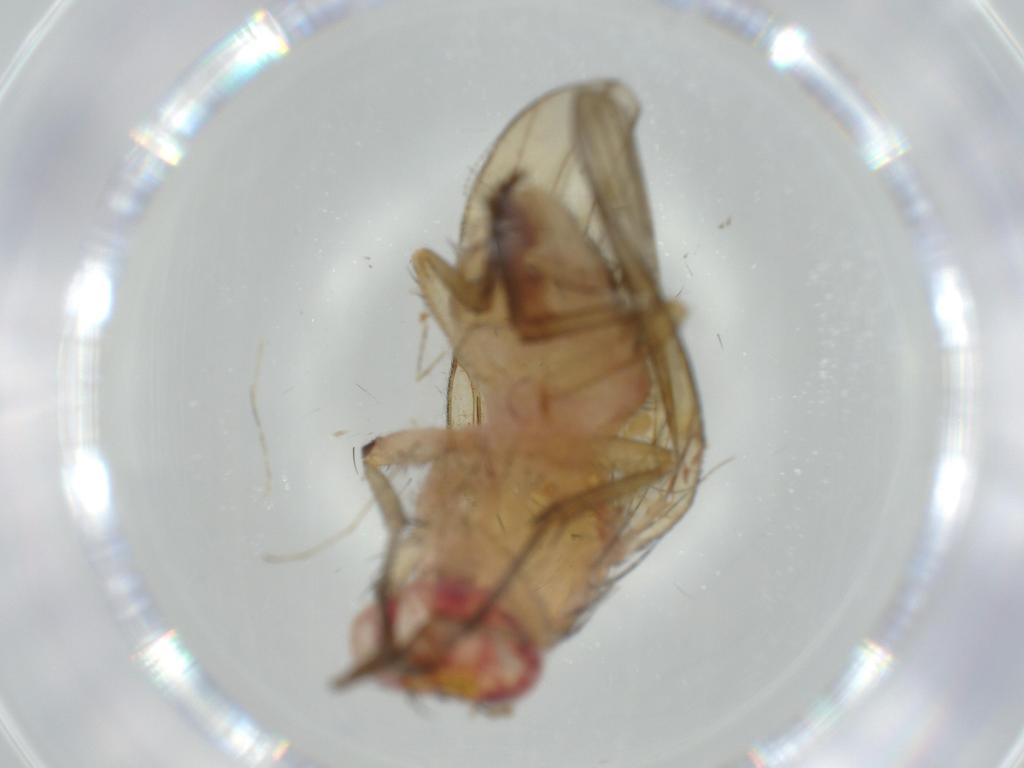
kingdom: Animalia
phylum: Arthropoda
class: Insecta
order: Diptera
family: Cecidomyiidae
